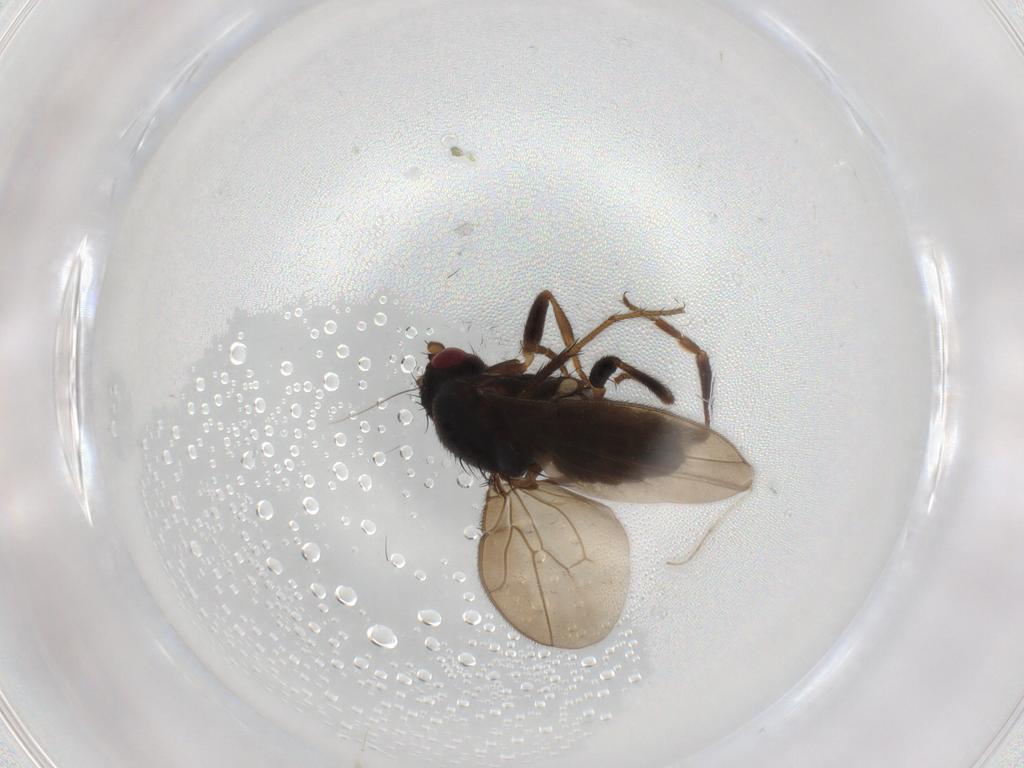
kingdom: Animalia
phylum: Arthropoda
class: Insecta
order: Diptera
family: Sphaeroceridae
